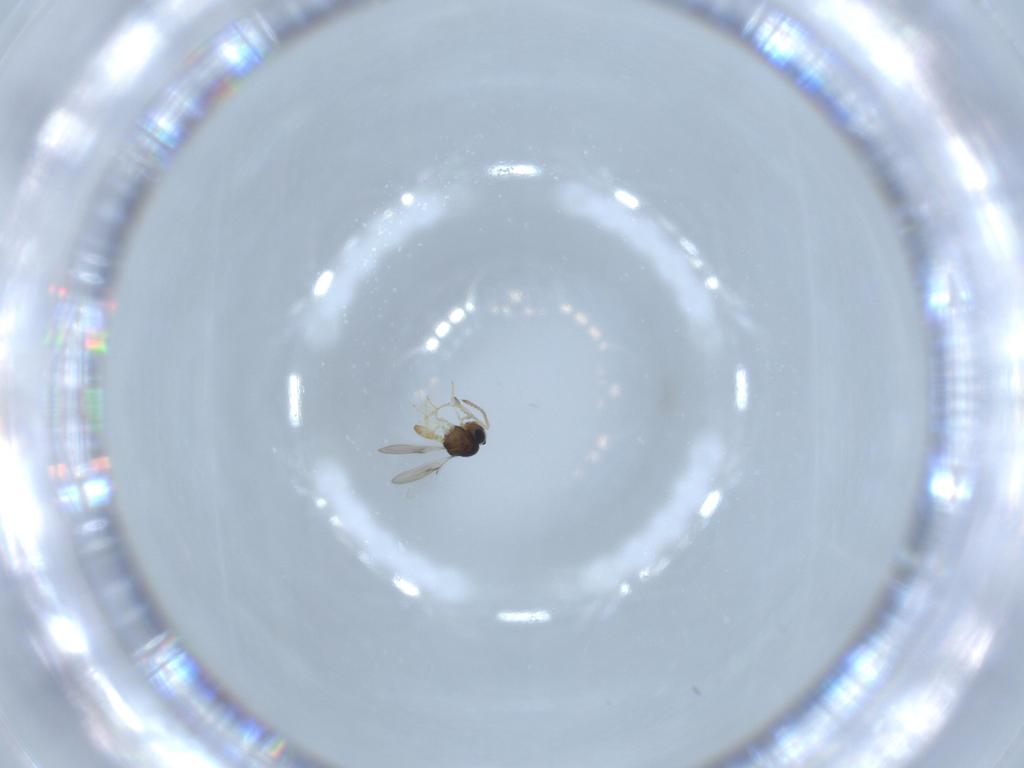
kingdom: Animalia
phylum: Arthropoda
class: Insecta
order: Hymenoptera
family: Scelionidae
